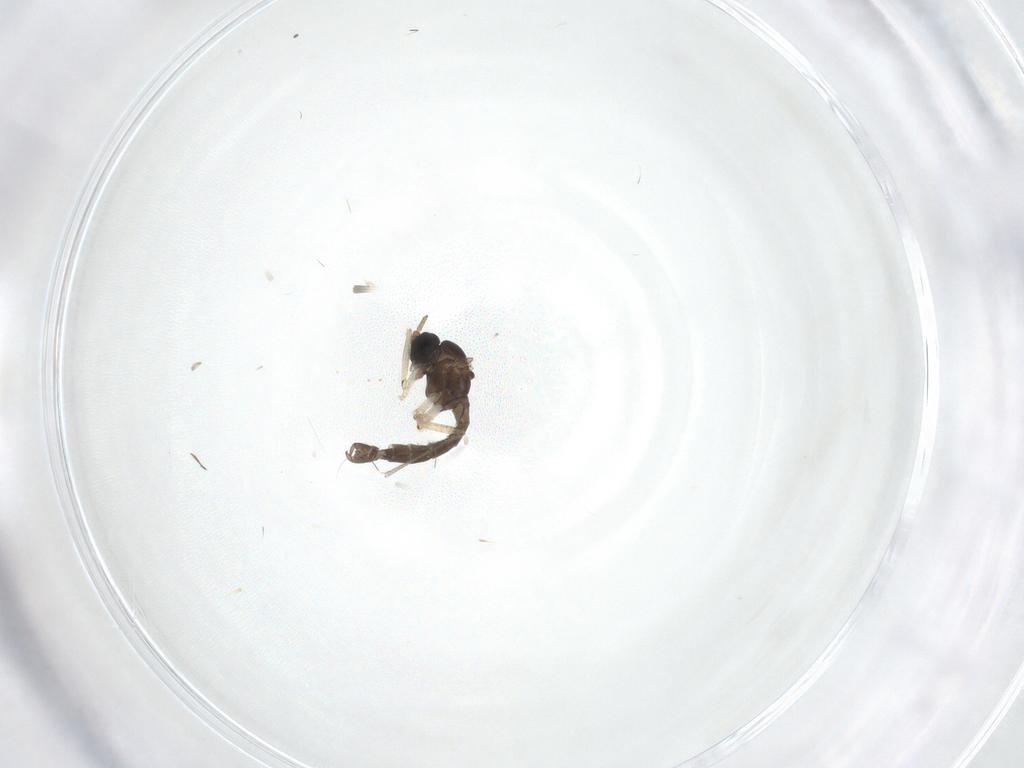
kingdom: Animalia
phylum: Arthropoda
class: Insecta
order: Diptera
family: Sciaridae
